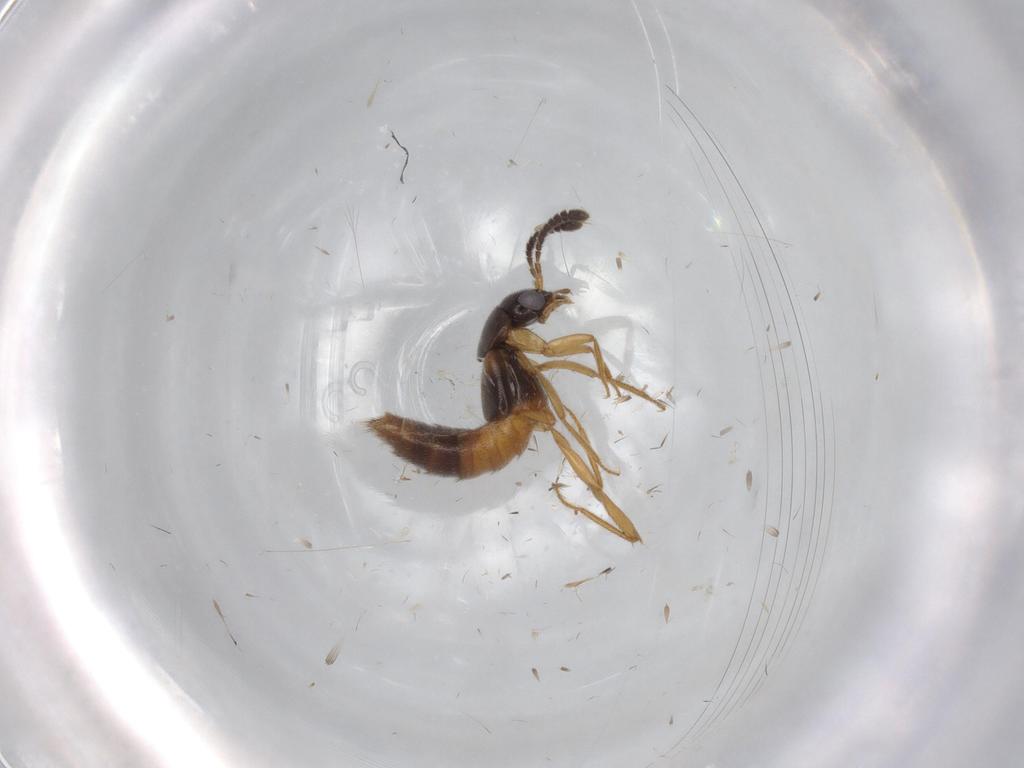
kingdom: Animalia
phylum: Arthropoda
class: Insecta
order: Coleoptera
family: Staphylinidae
